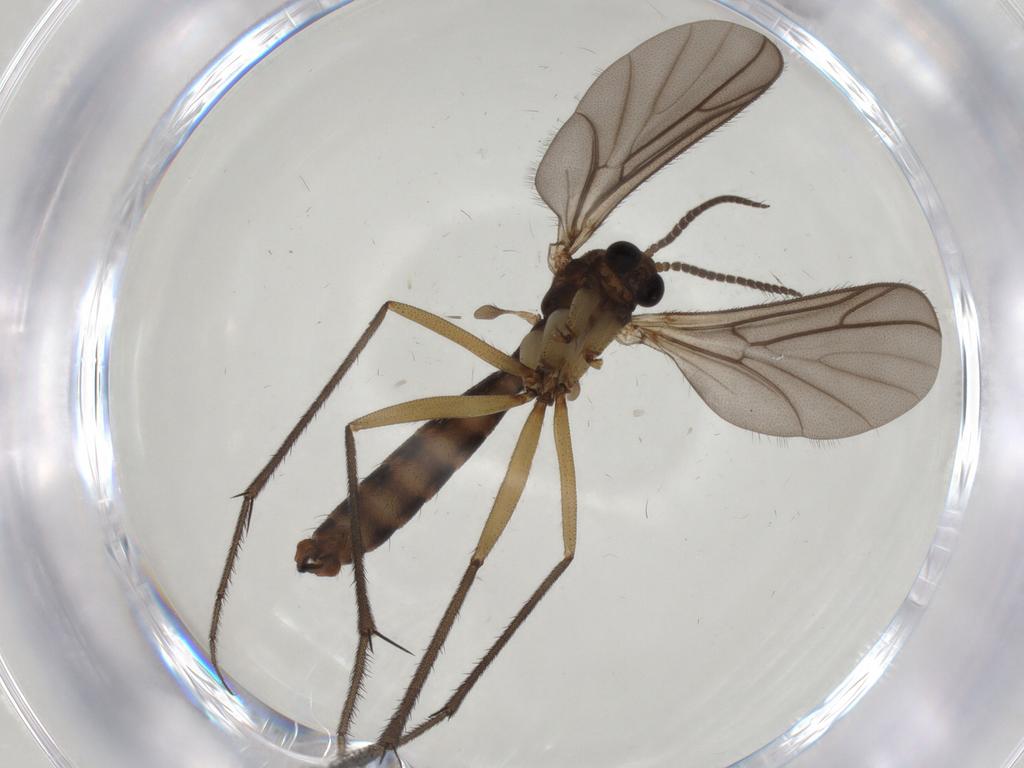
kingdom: Animalia
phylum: Arthropoda
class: Insecta
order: Diptera
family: Ditomyiidae
